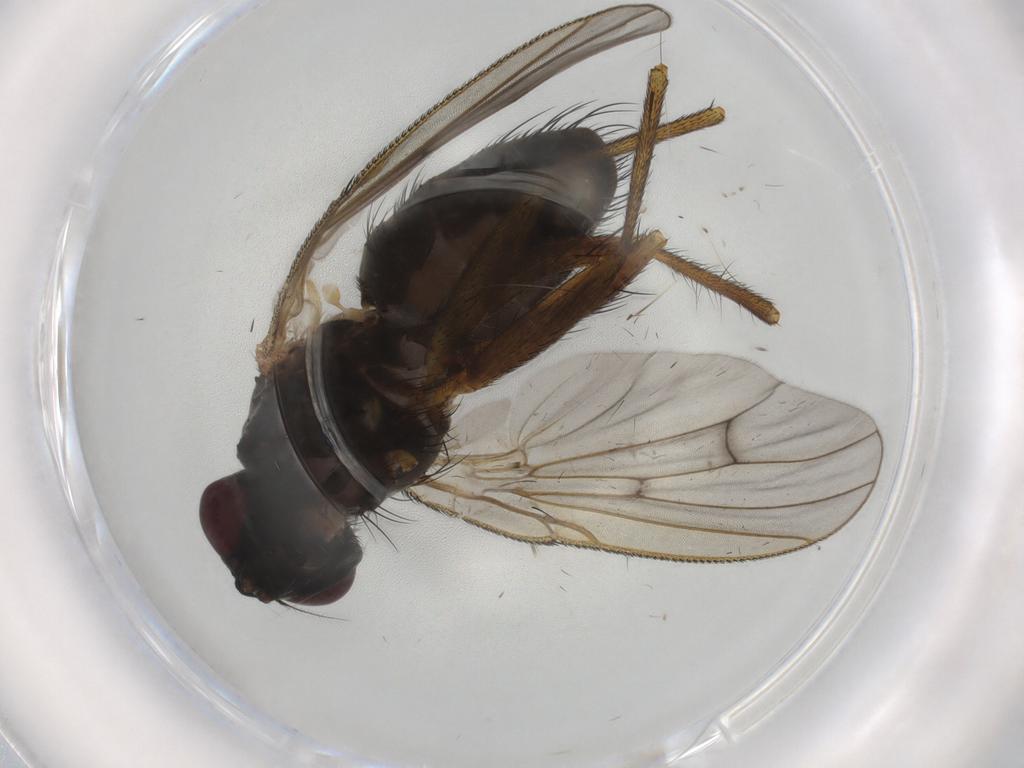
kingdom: Animalia
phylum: Arthropoda
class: Insecta
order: Diptera
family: Muscidae
